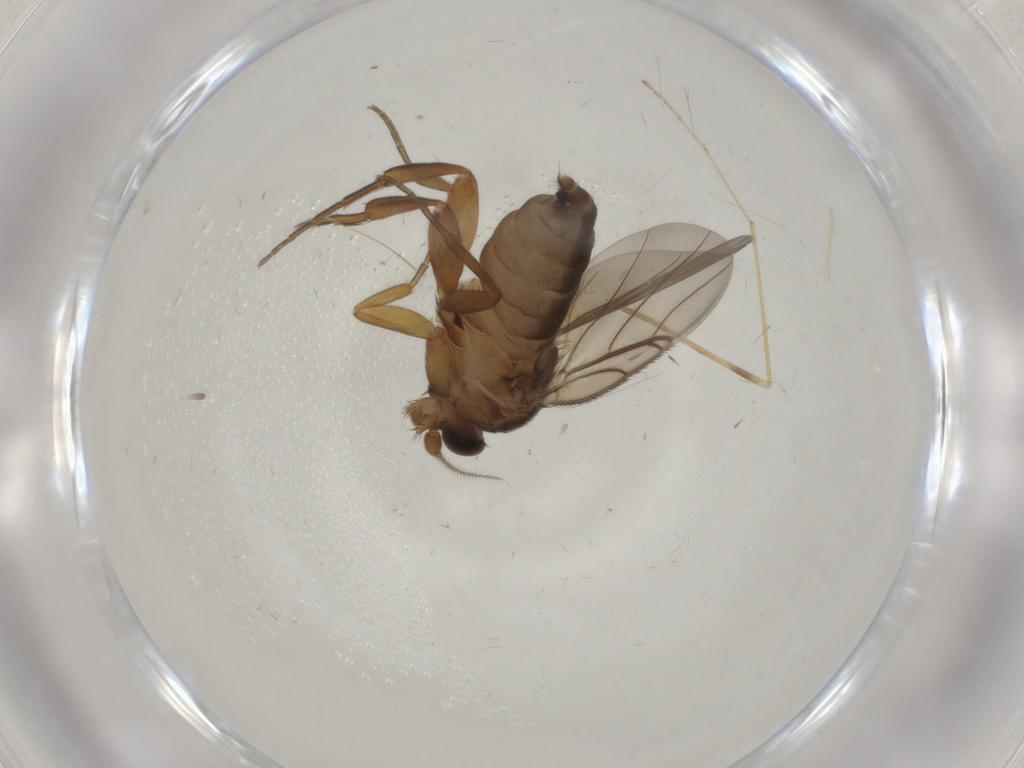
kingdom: Animalia
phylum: Arthropoda
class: Insecta
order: Diptera
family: Limoniidae
